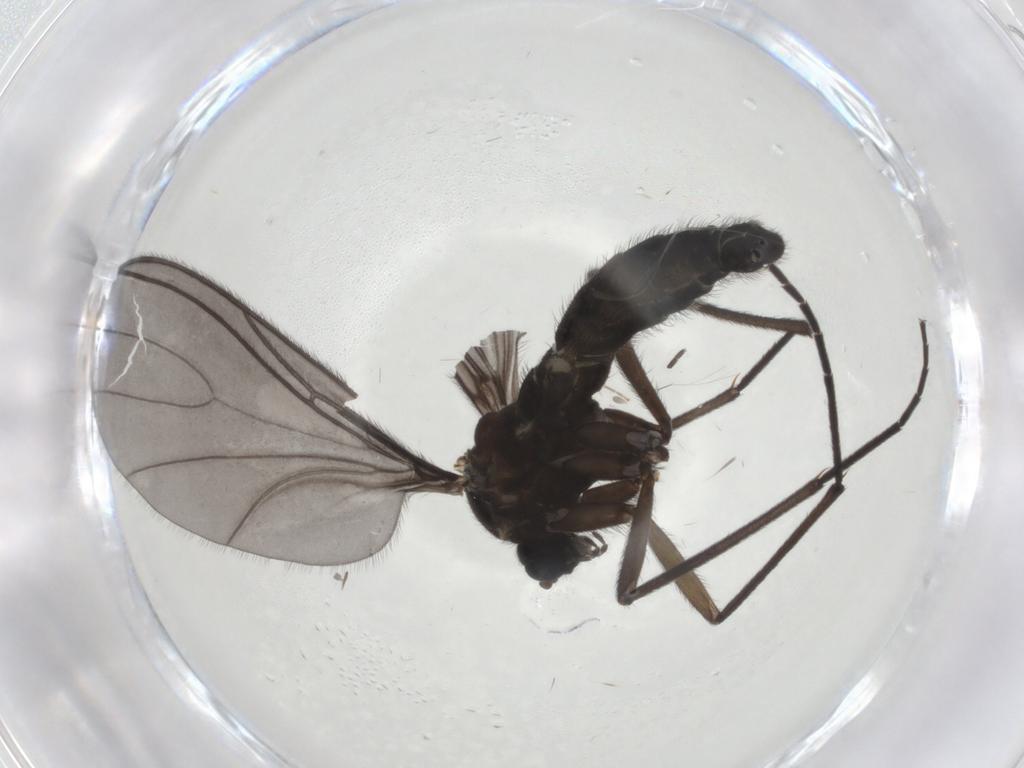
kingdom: Animalia
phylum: Arthropoda
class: Insecta
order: Diptera
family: Sciaridae
